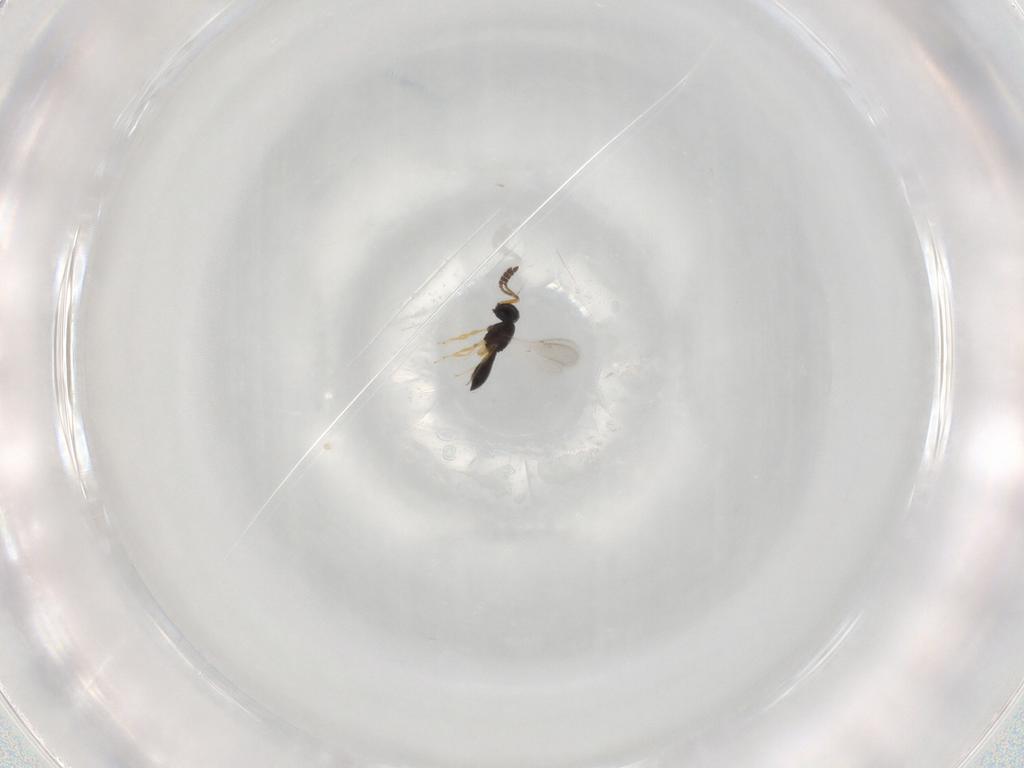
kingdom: Animalia
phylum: Arthropoda
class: Insecta
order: Hymenoptera
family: Scelionidae
